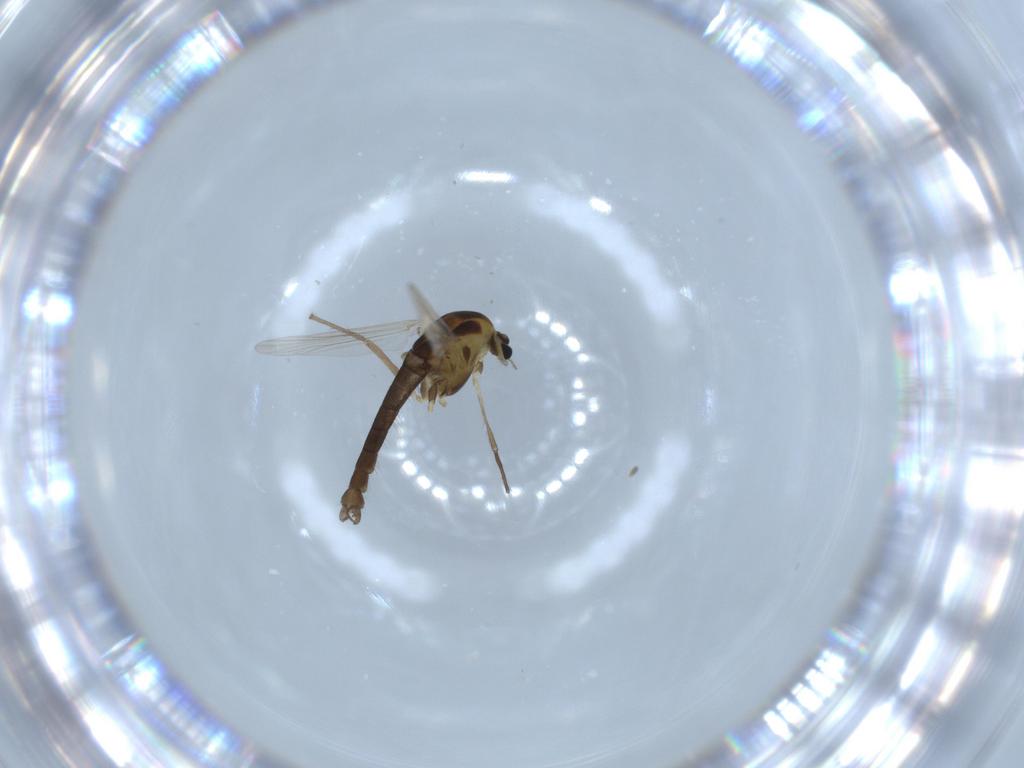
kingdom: Animalia
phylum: Arthropoda
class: Insecta
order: Diptera
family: Chironomidae
